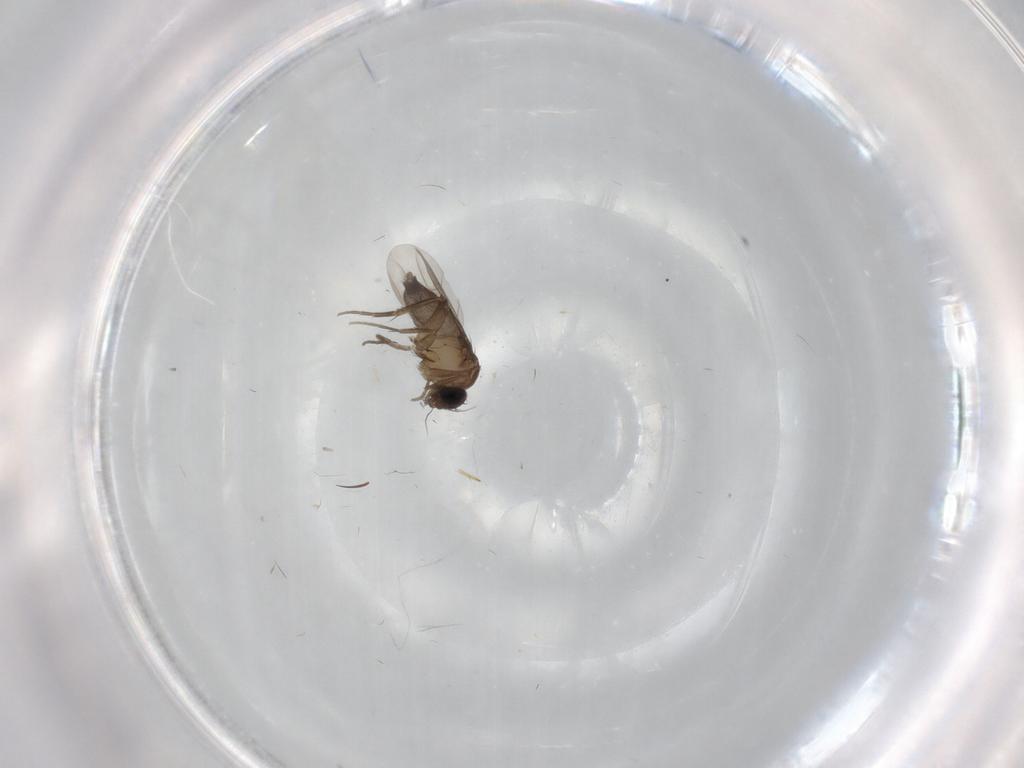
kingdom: Animalia
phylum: Arthropoda
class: Insecta
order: Diptera
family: Phoridae
